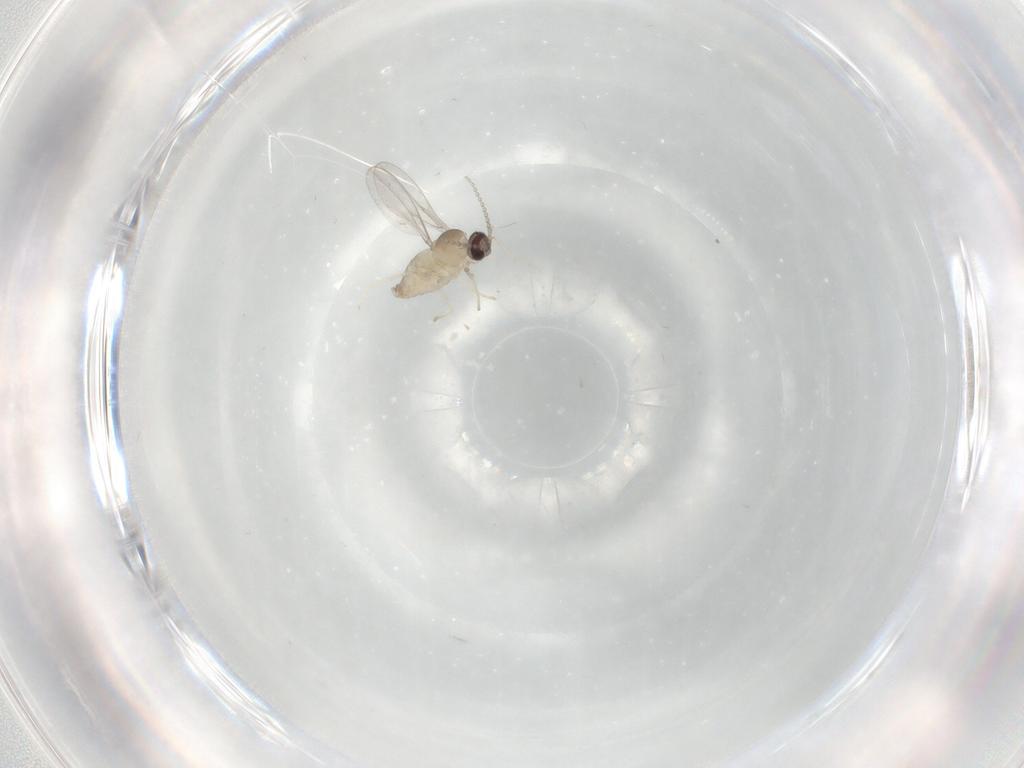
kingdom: Animalia
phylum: Arthropoda
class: Insecta
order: Diptera
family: Cecidomyiidae
